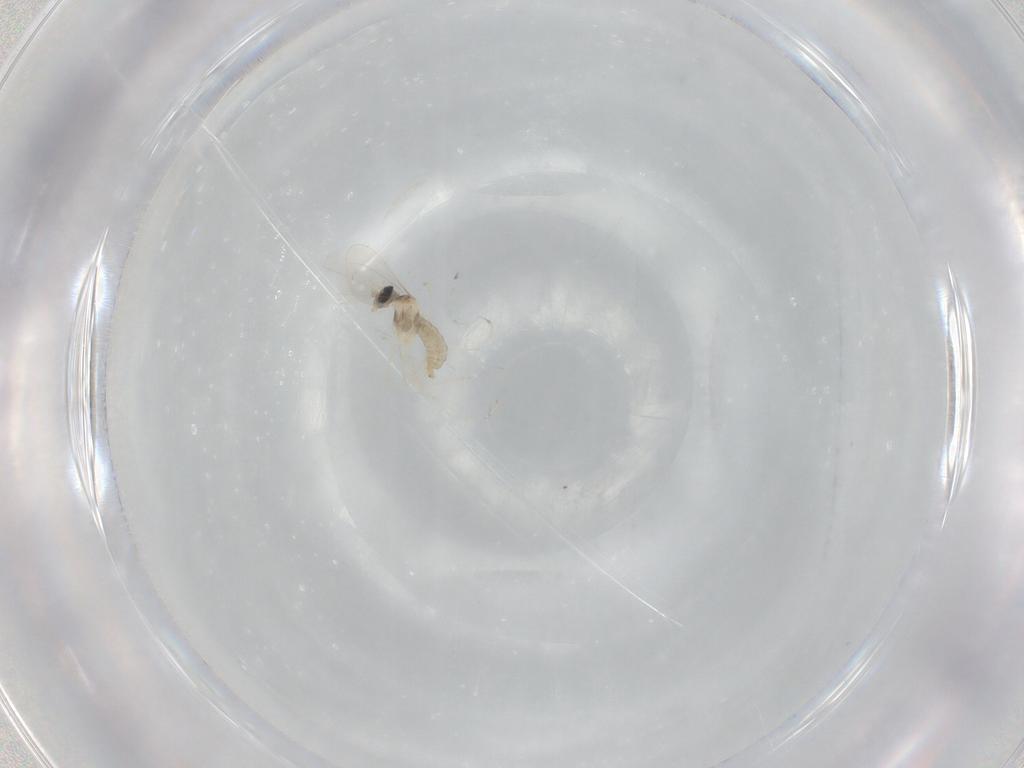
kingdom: Animalia
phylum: Arthropoda
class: Insecta
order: Diptera
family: Cecidomyiidae
